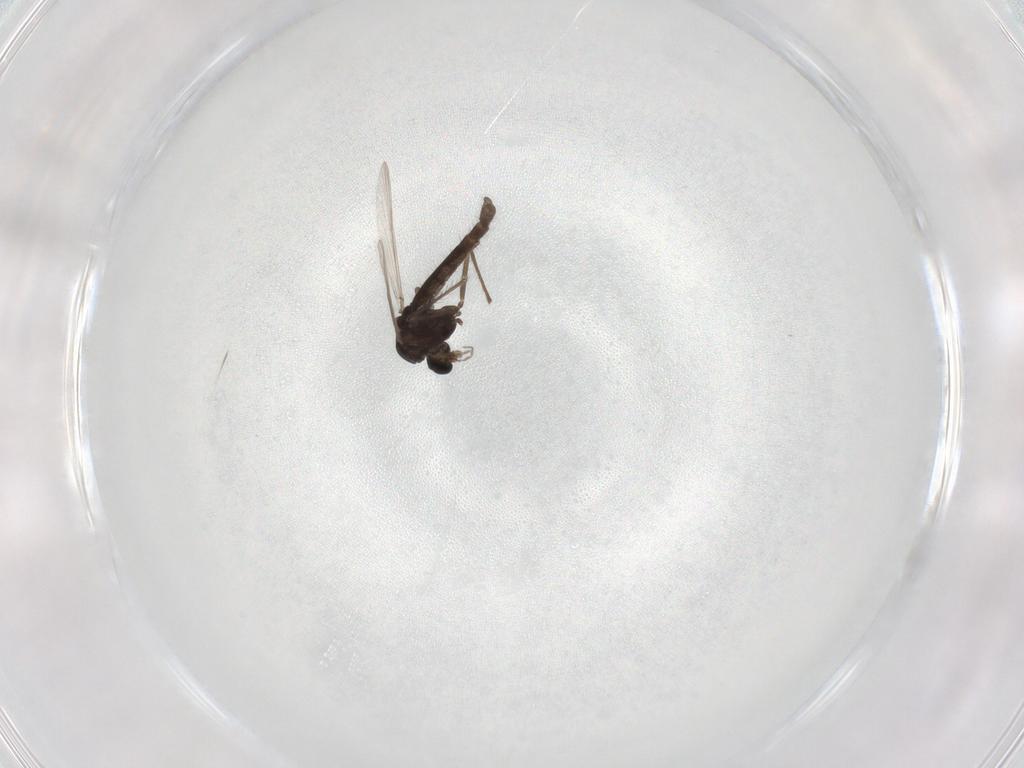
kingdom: Animalia
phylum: Arthropoda
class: Insecta
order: Diptera
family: Chironomidae
